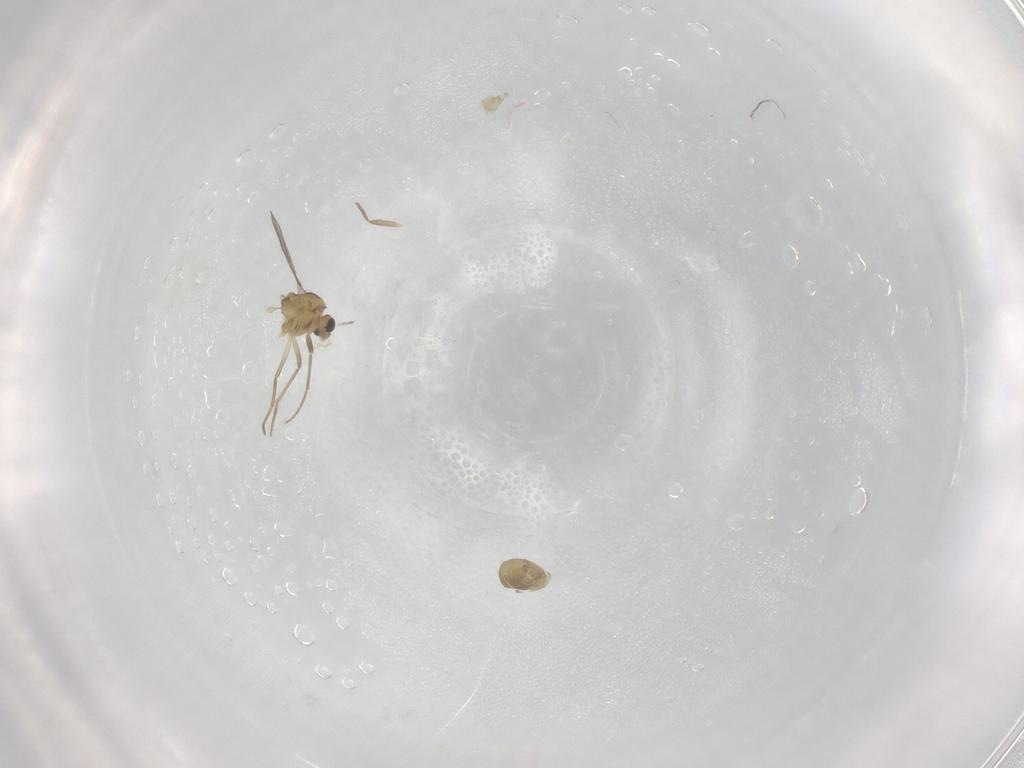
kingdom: Animalia
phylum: Arthropoda
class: Insecta
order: Diptera
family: Chironomidae
